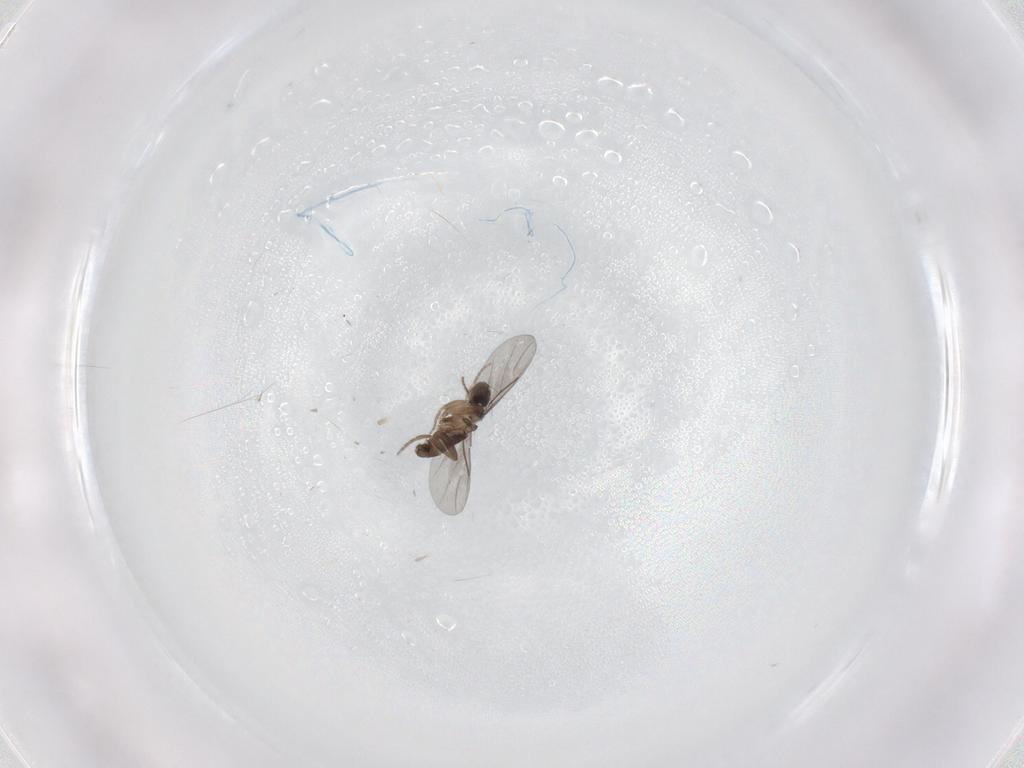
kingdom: Animalia
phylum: Arthropoda
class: Insecta
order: Diptera
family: Cecidomyiidae
